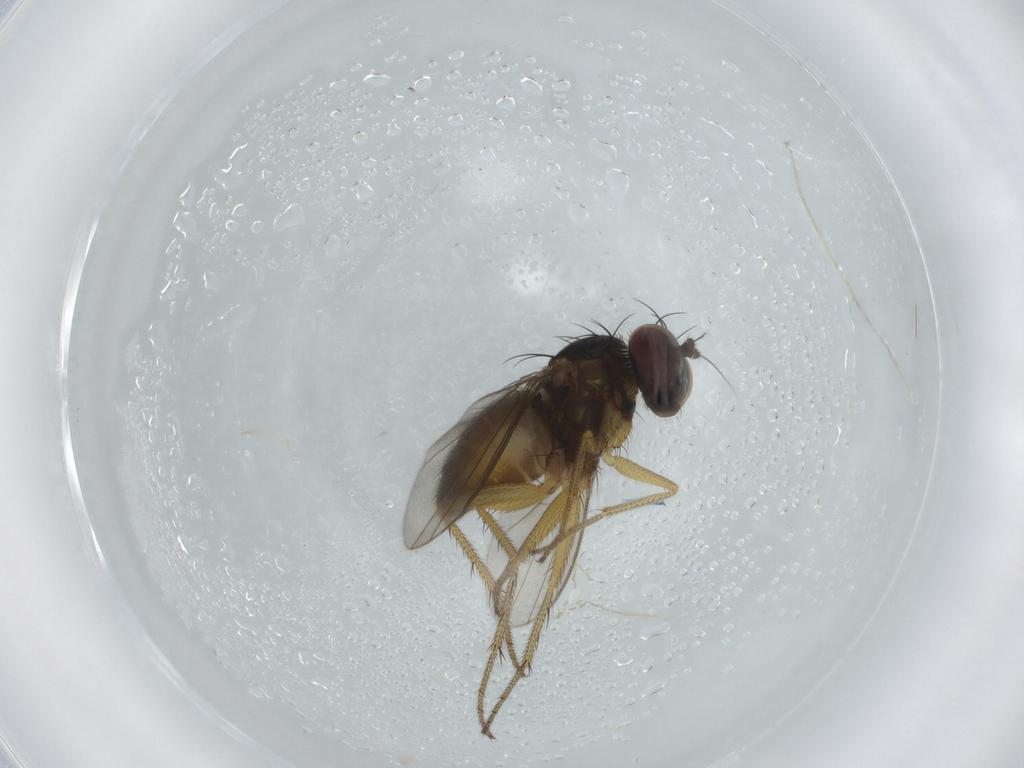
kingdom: Animalia
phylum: Arthropoda
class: Insecta
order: Diptera
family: Dolichopodidae
